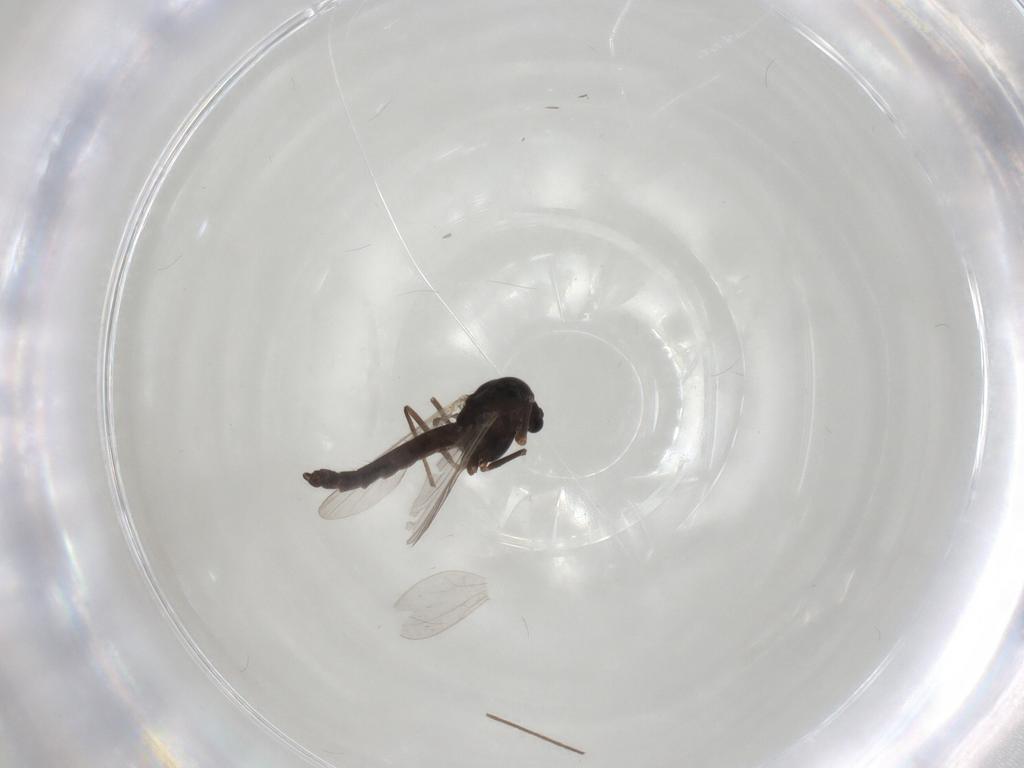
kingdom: Animalia
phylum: Arthropoda
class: Insecta
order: Diptera
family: Chironomidae
